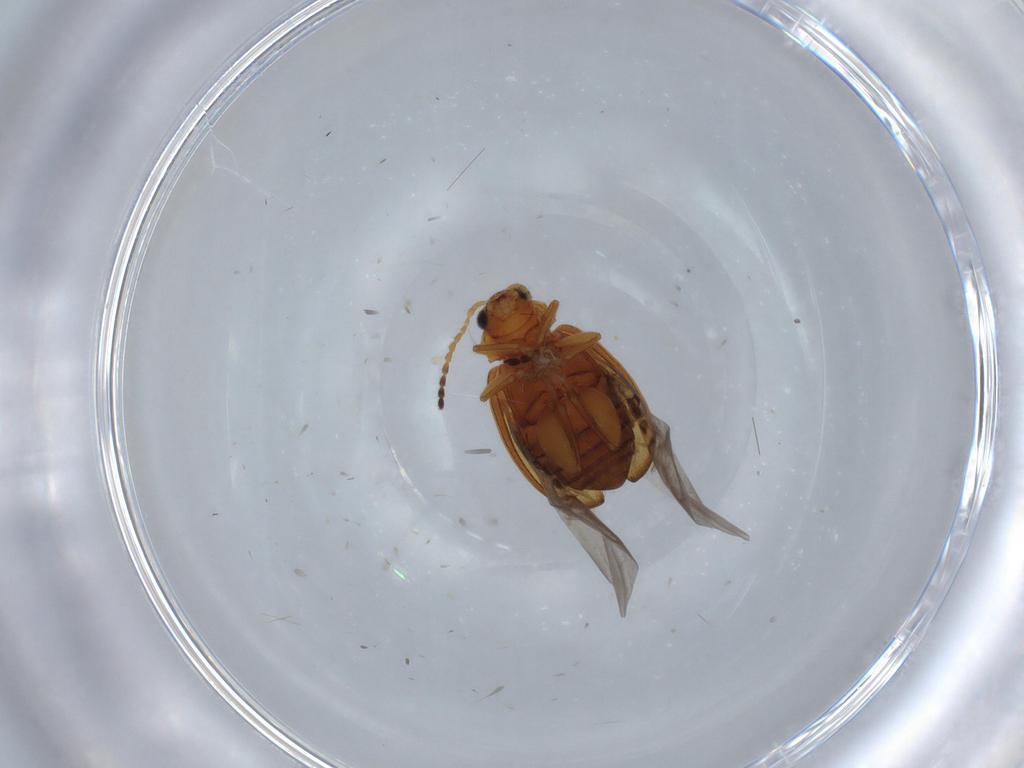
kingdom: Animalia
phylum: Arthropoda
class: Insecta
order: Coleoptera
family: Chrysomelidae
